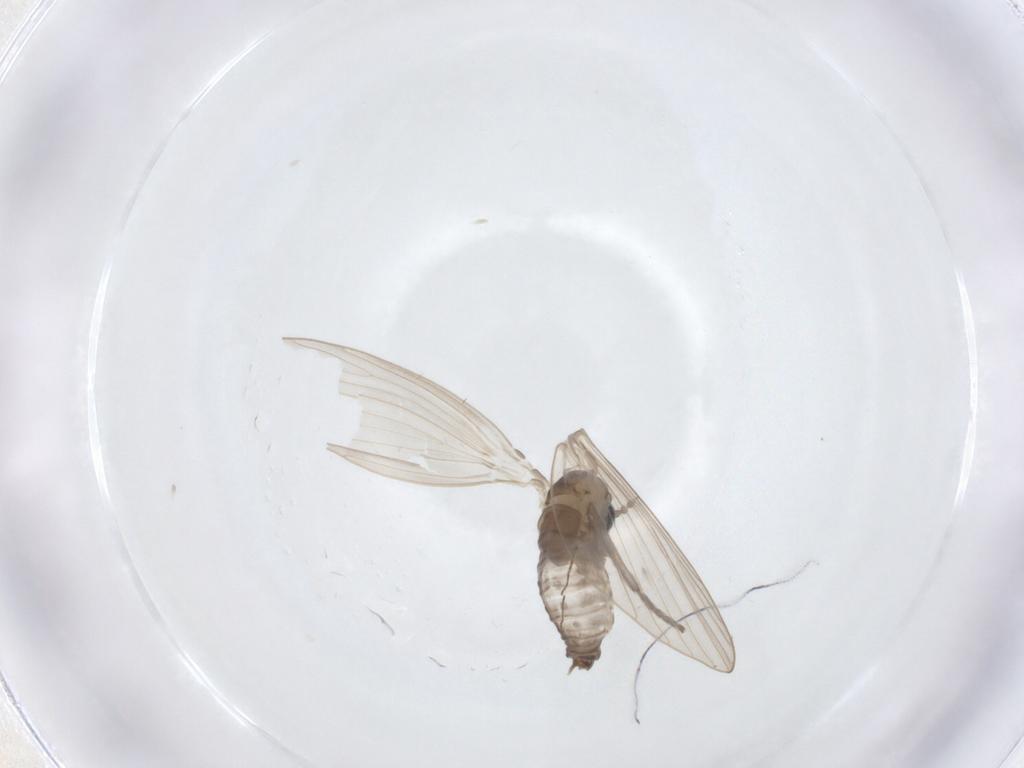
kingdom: Animalia
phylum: Arthropoda
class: Insecta
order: Diptera
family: Psychodidae
